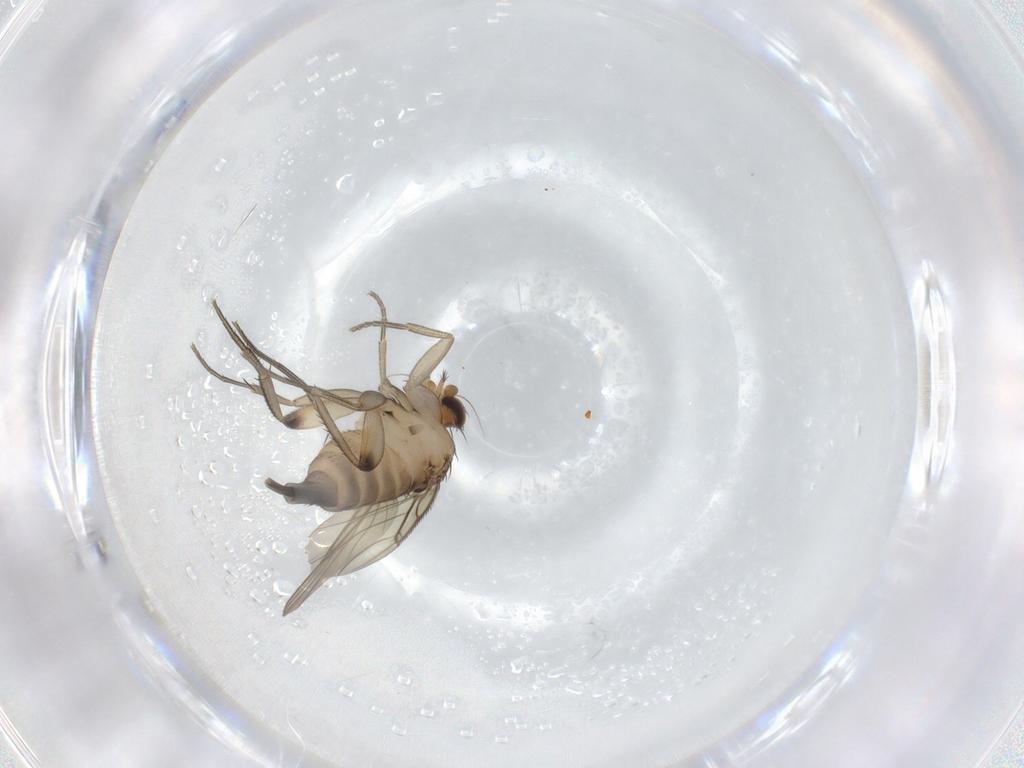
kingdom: Animalia
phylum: Arthropoda
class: Insecta
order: Diptera
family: Phoridae
